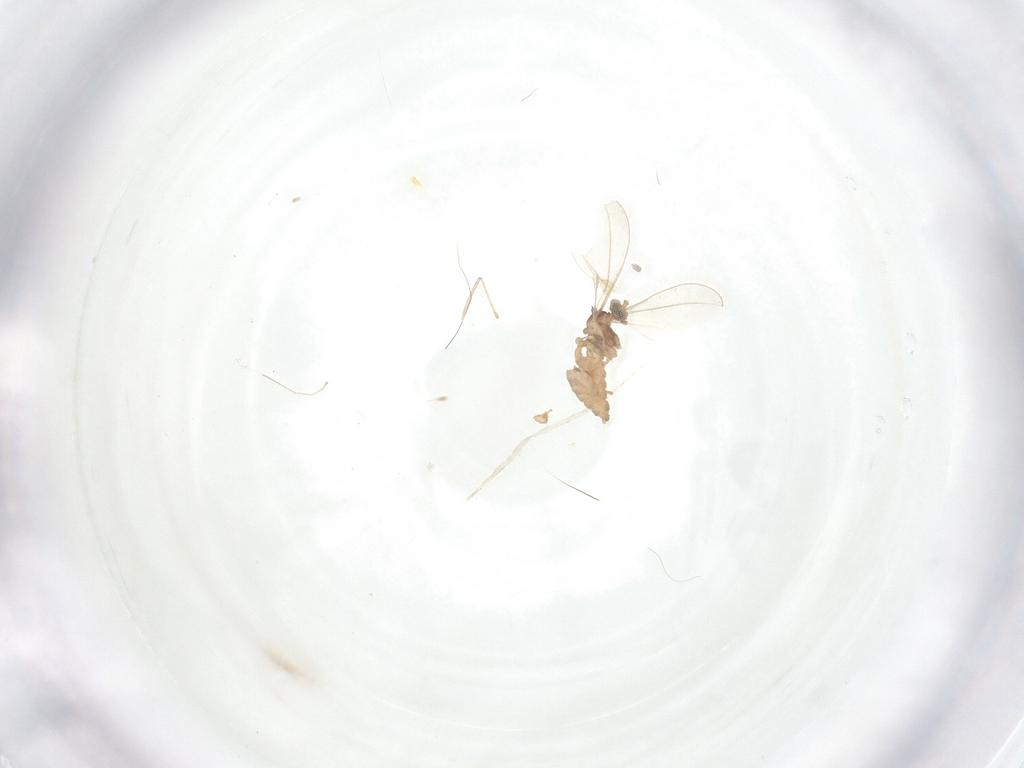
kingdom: Animalia
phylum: Arthropoda
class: Insecta
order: Diptera
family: Cecidomyiidae
